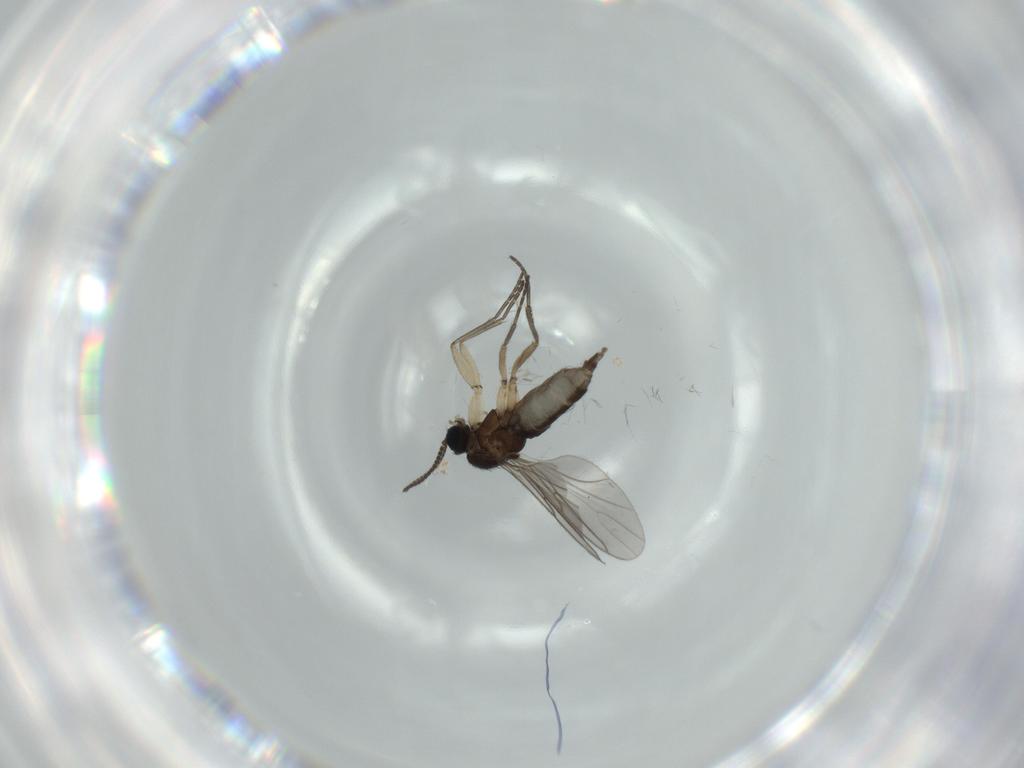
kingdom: Animalia
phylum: Arthropoda
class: Insecta
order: Diptera
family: Sciaridae
